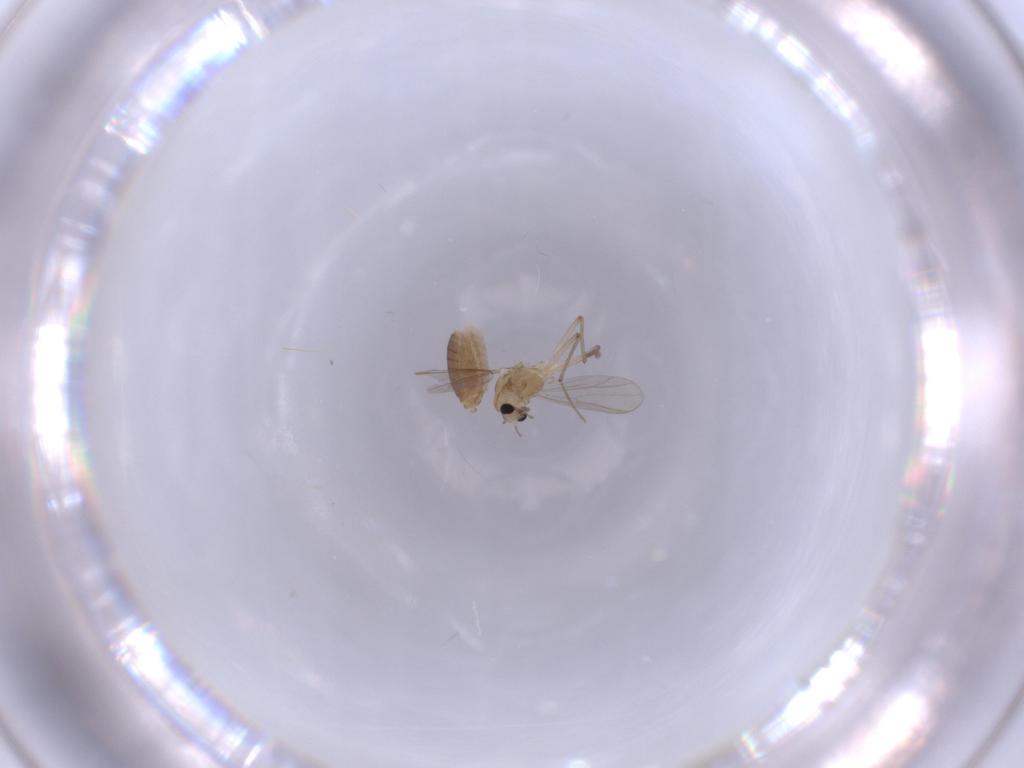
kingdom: Animalia
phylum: Arthropoda
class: Insecta
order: Diptera
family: Chironomidae
